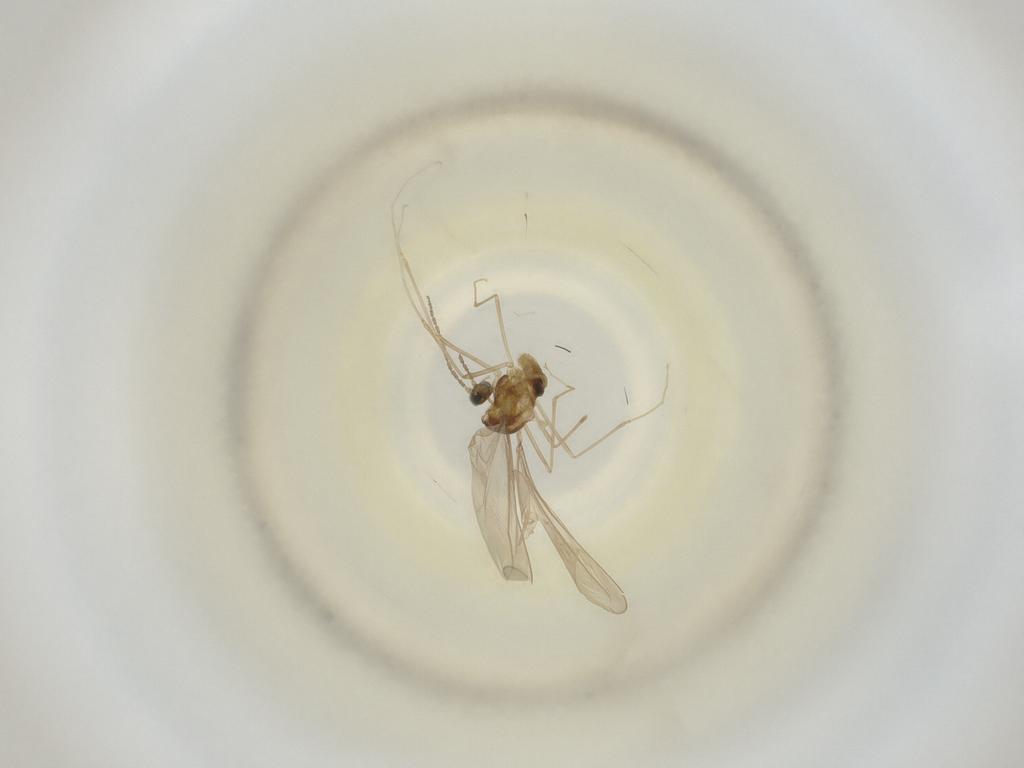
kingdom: Animalia
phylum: Arthropoda
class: Insecta
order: Diptera
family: Cecidomyiidae
